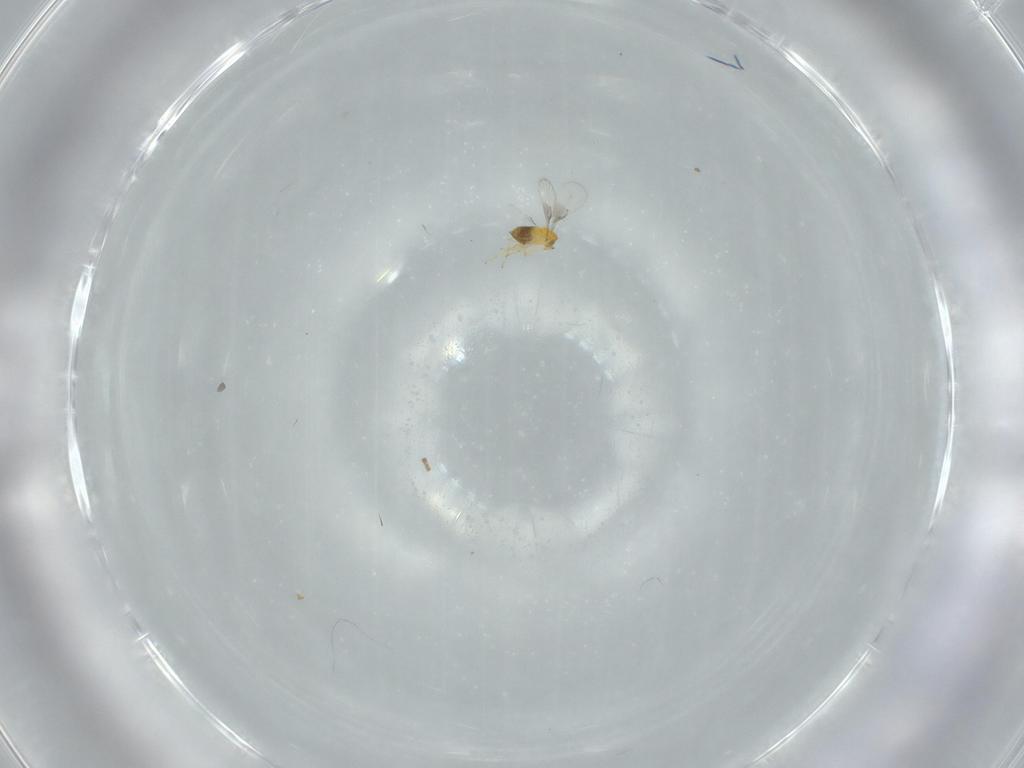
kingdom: Animalia
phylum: Arthropoda
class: Insecta
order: Hymenoptera
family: Trichogrammatidae
